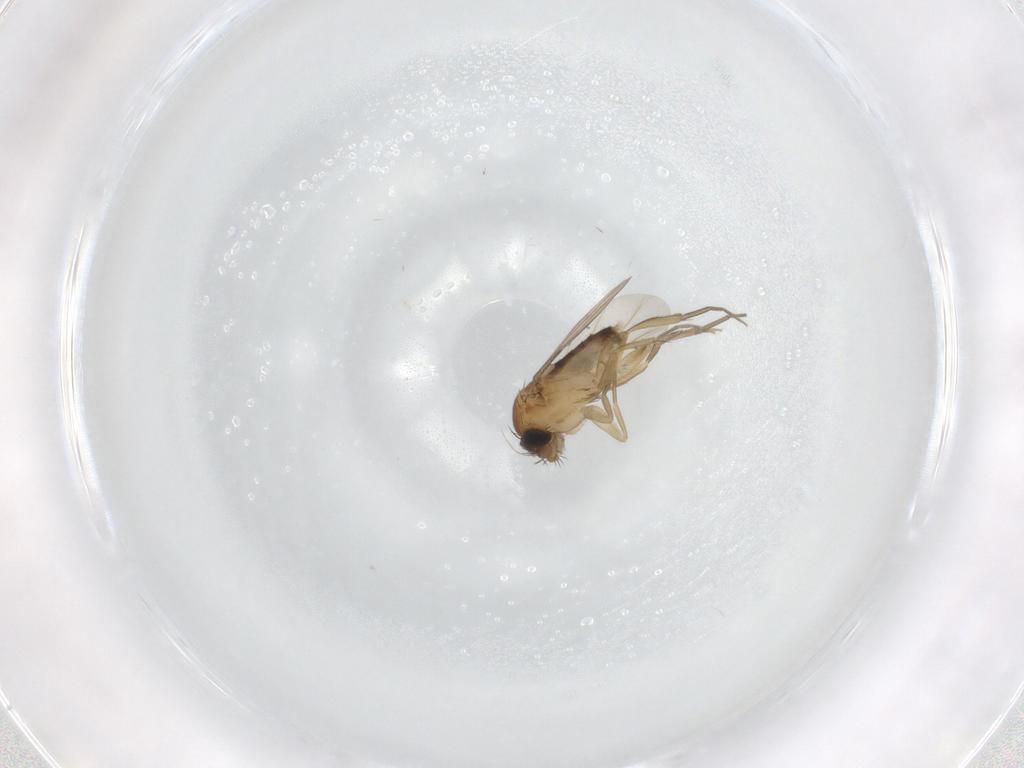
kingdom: Animalia
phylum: Arthropoda
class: Insecta
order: Diptera
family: Phoridae
